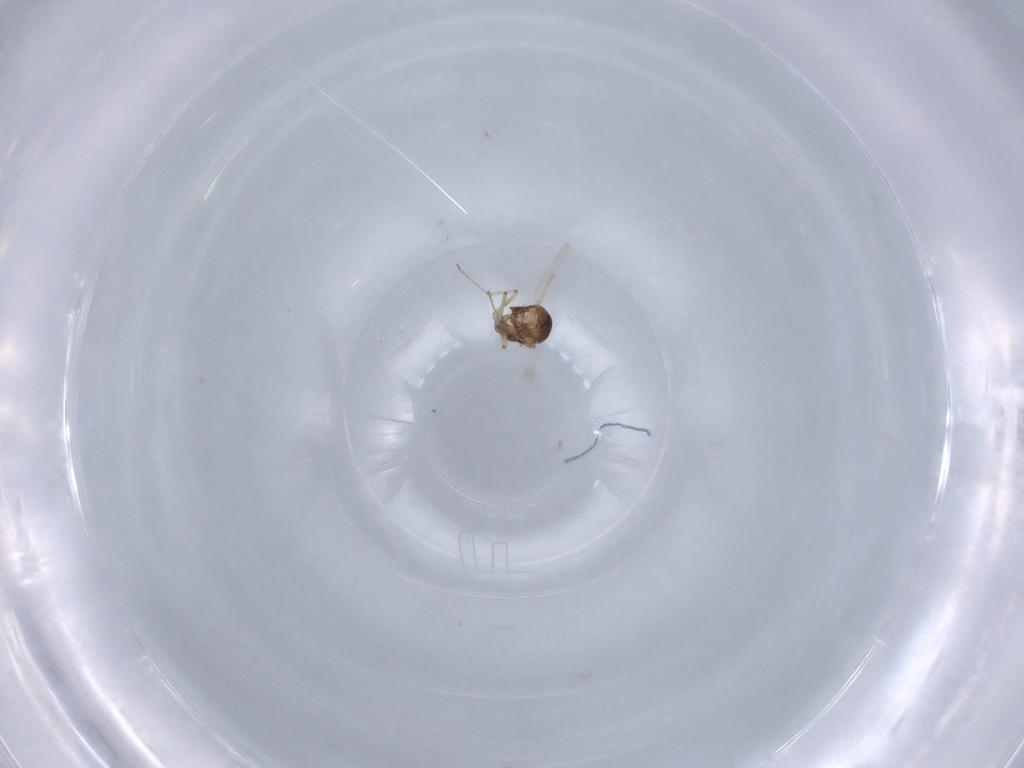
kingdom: Animalia
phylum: Arthropoda
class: Insecta
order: Diptera
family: Ceratopogonidae
